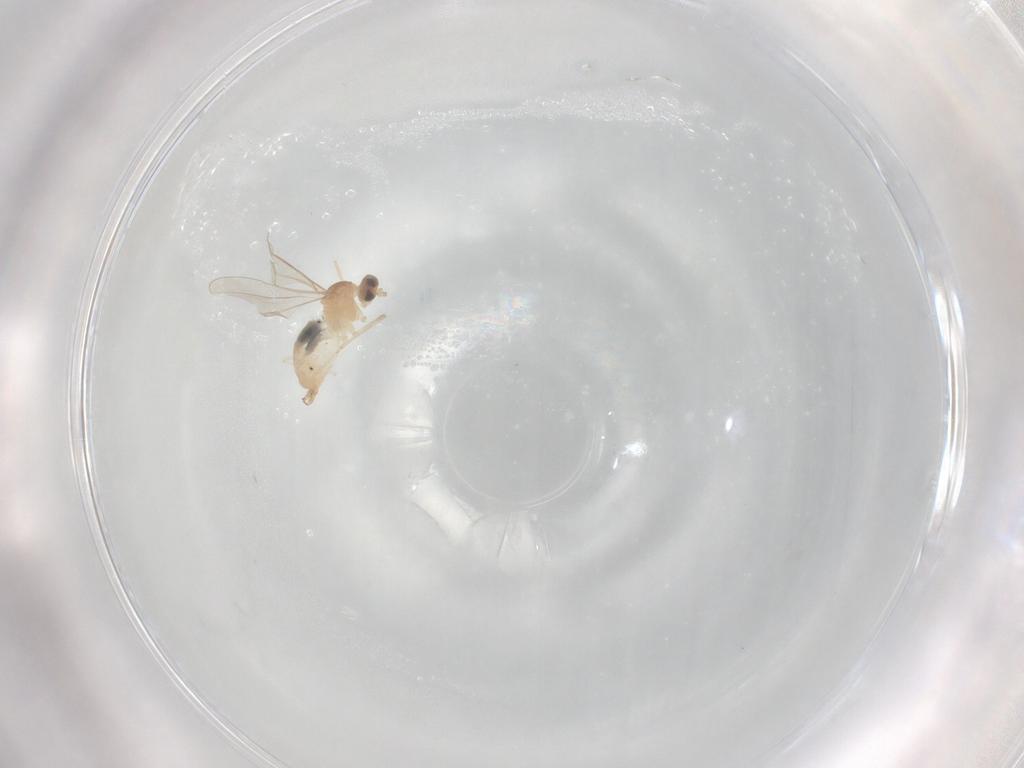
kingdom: Animalia
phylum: Arthropoda
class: Insecta
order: Diptera
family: Cecidomyiidae
